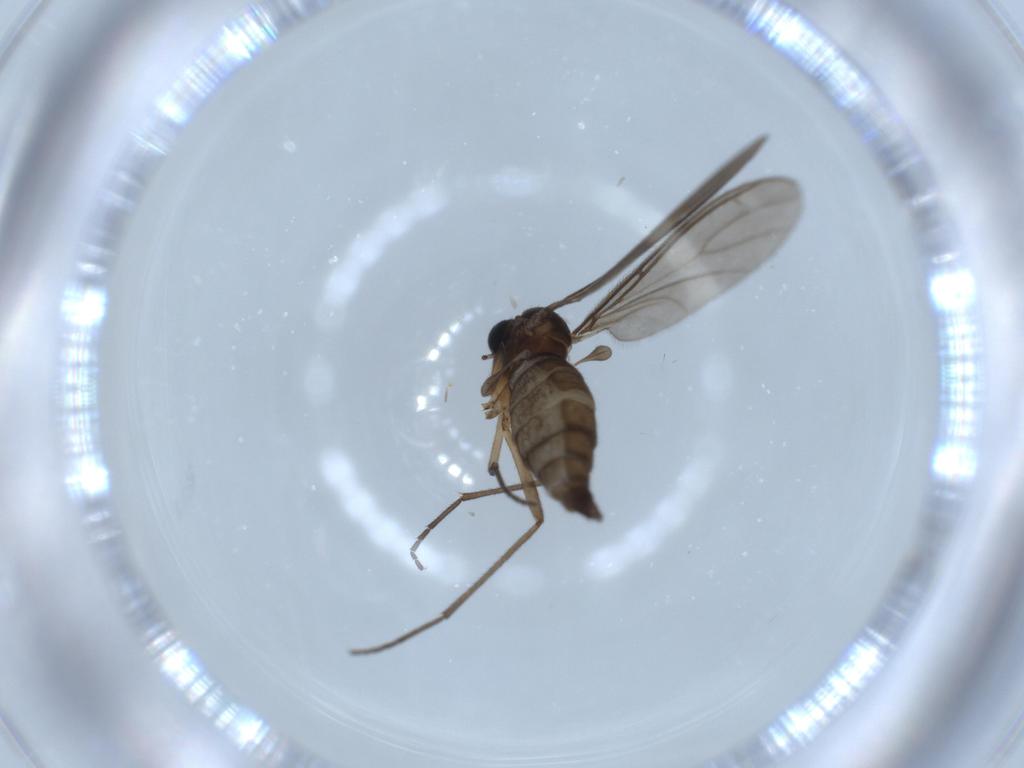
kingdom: Animalia
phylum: Arthropoda
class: Insecta
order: Diptera
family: Sciaridae
